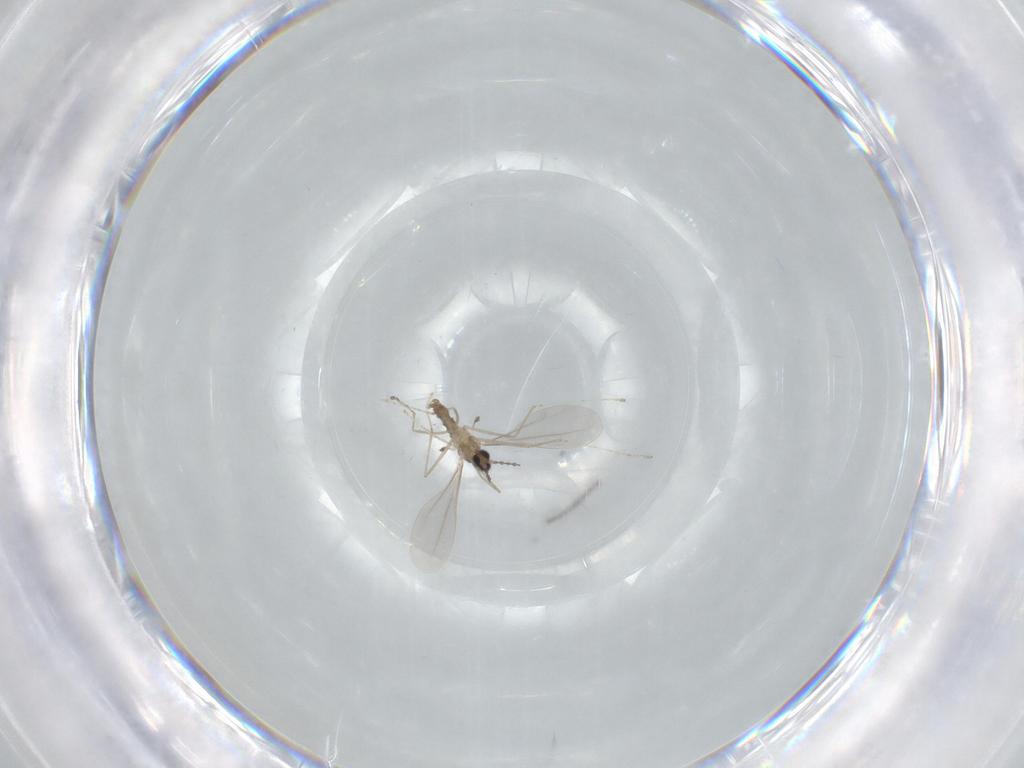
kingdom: Animalia
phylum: Arthropoda
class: Insecta
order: Diptera
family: Cecidomyiidae
